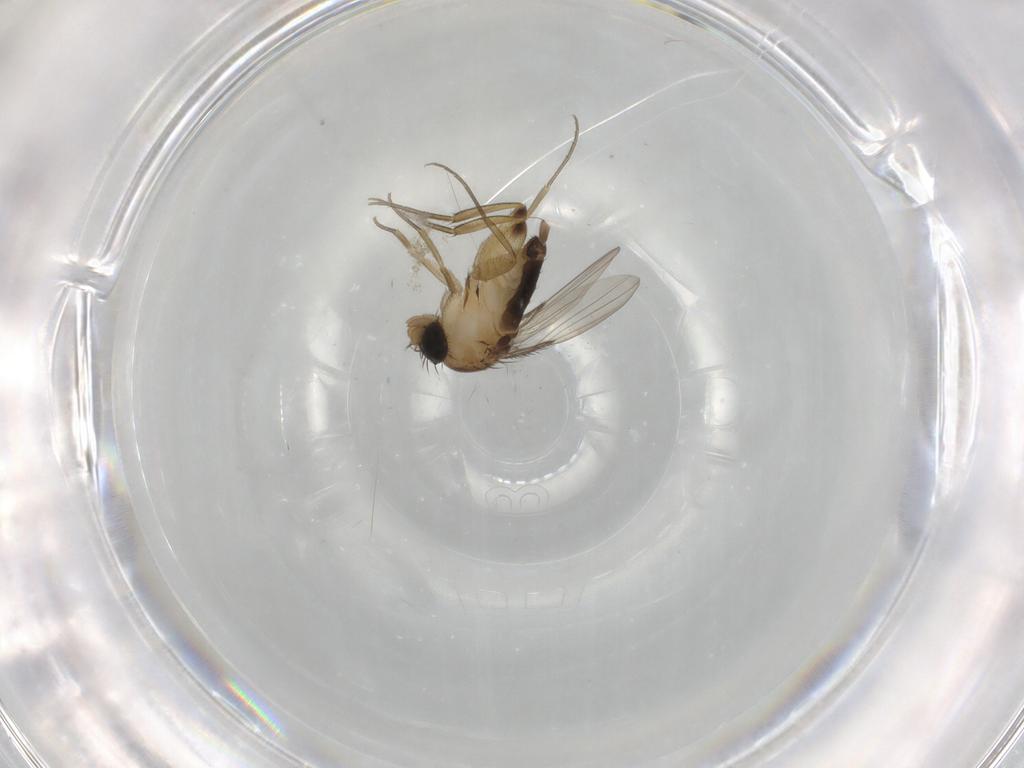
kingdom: Animalia
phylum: Arthropoda
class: Insecta
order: Diptera
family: Phoridae
